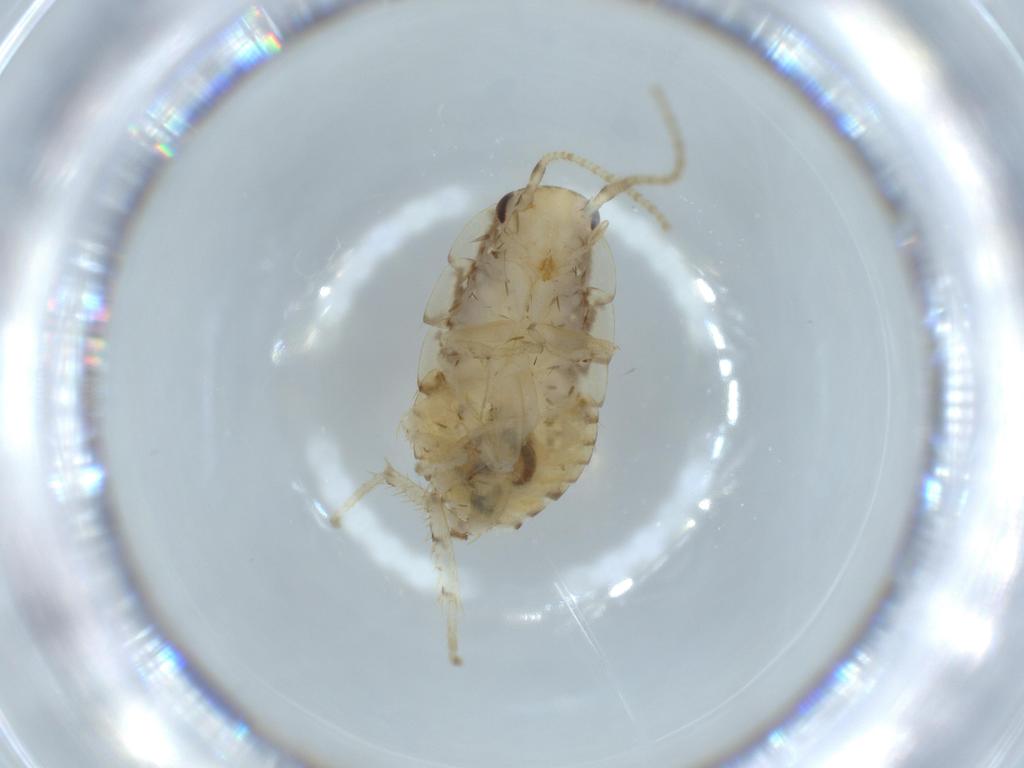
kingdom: Animalia
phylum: Arthropoda
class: Insecta
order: Blattodea
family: Ectobiidae
